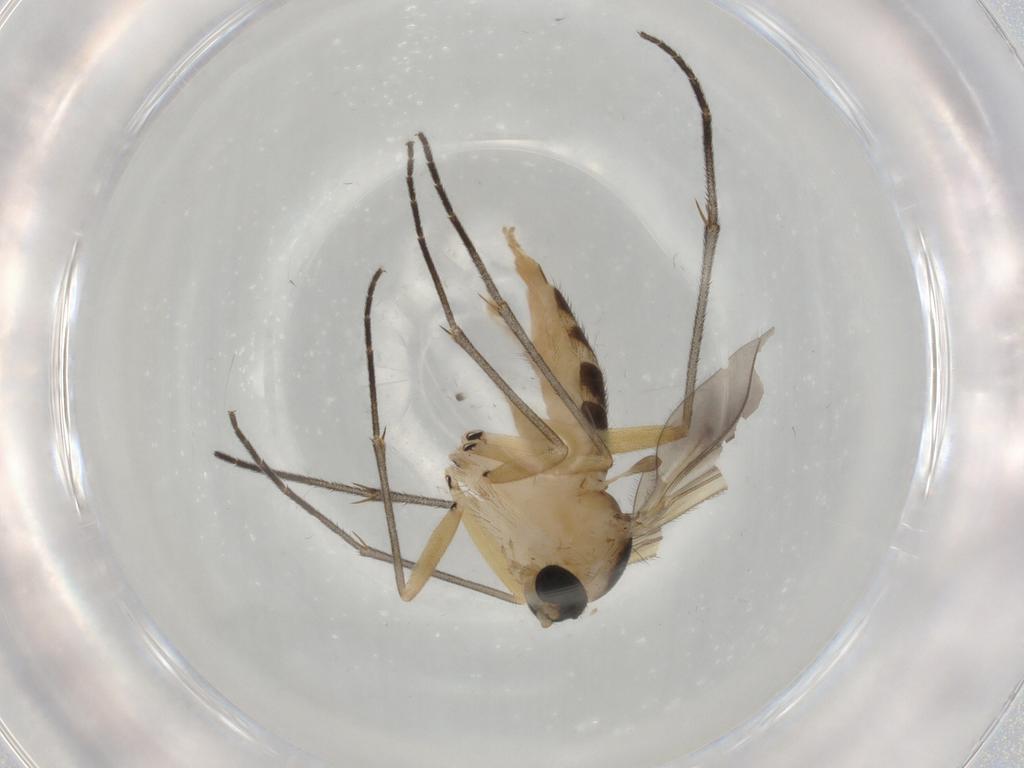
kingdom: Animalia
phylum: Arthropoda
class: Insecta
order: Diptera
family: Sciaridae
